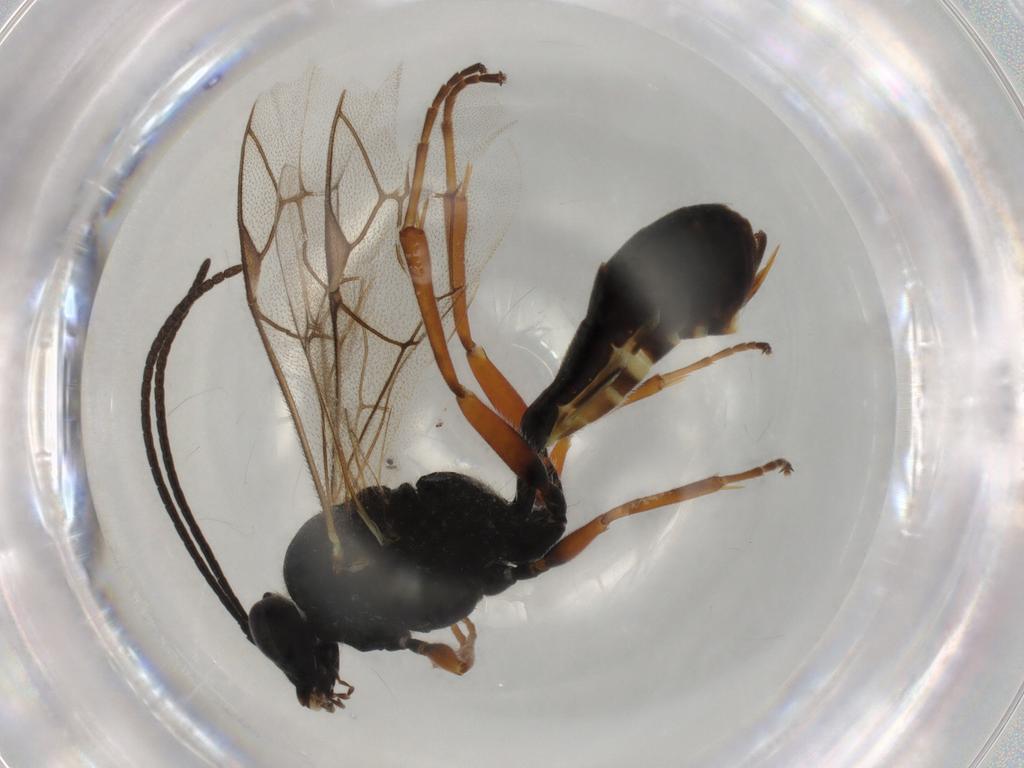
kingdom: Animalia
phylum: Arthropoda
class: Insecta
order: Hymenoptera
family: Ichneumonidae
